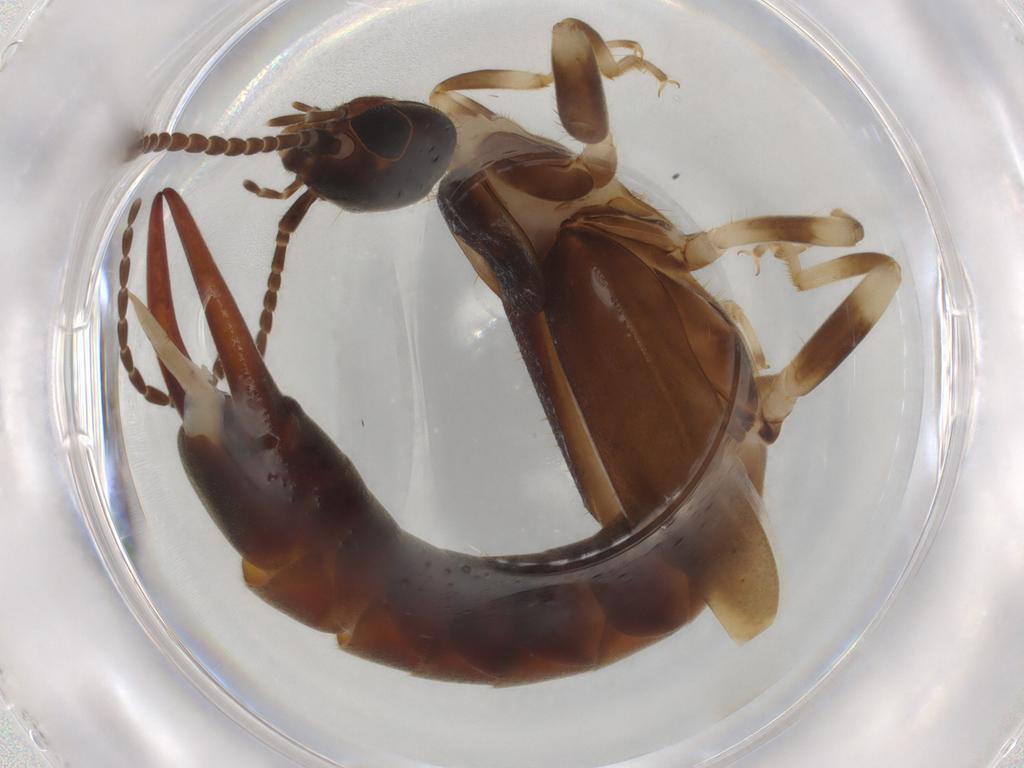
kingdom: Animalia
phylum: Arthropoda
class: Insecta
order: Dermaptera
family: Labiduridae
